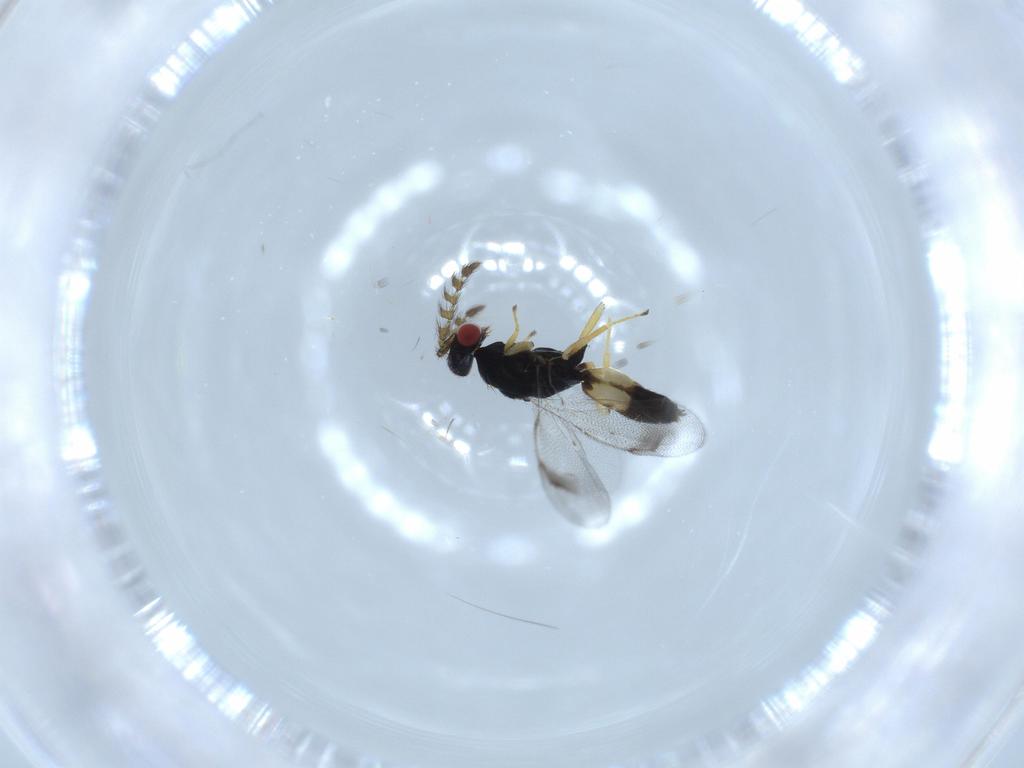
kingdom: Animalia
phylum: Arthropoda
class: Insecta
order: Hymenoptera
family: Eulophidae
